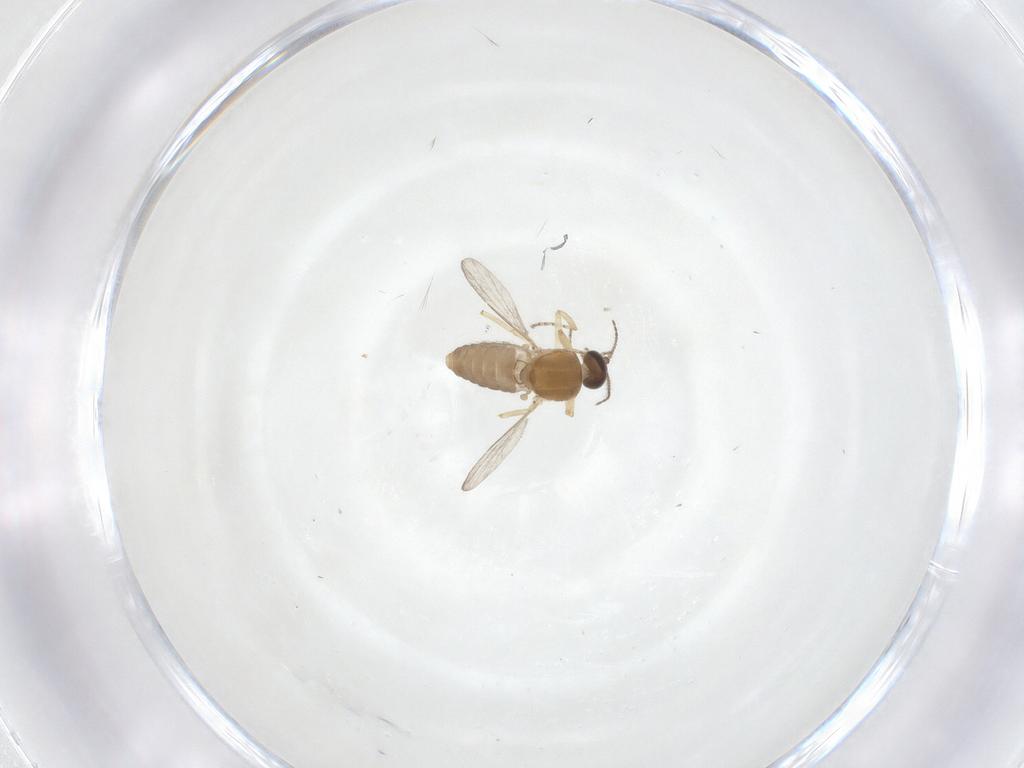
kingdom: Animalia
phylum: Arthropoda
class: Insecta
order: Diptera
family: Ceratopogonidae
